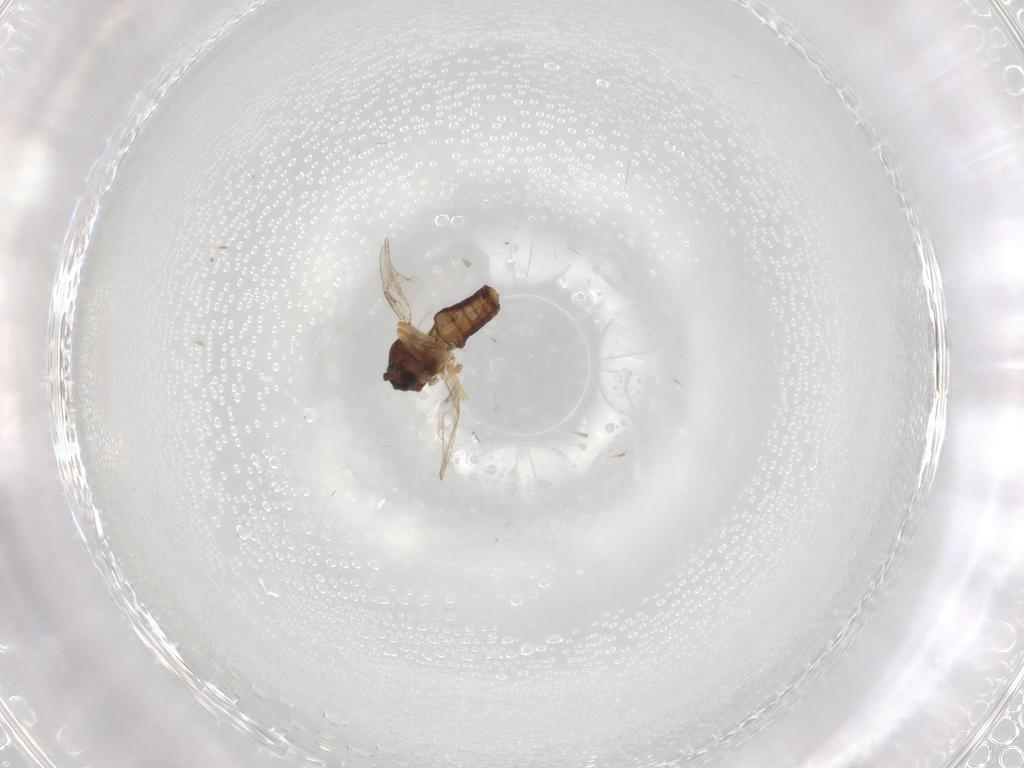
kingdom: Animalia
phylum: Arthropoda
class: Insecta
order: Diptera
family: Ceratopogonidae
